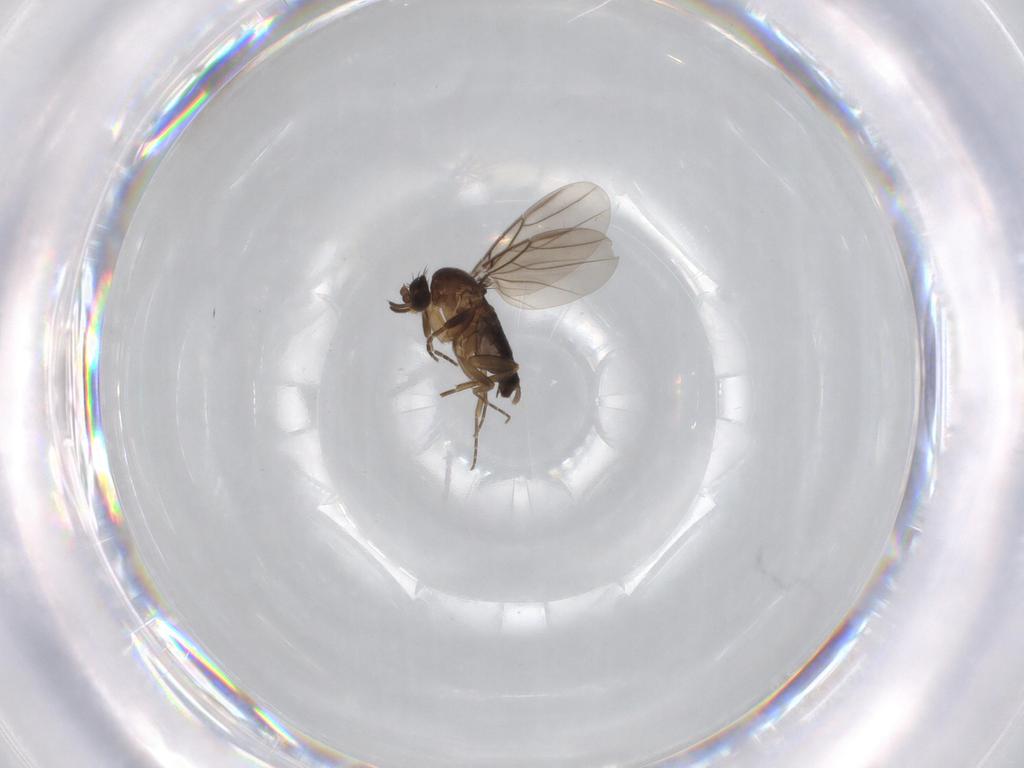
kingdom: Animalia
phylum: Arthropoda
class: Insecta
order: Diptera
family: Phoridae
